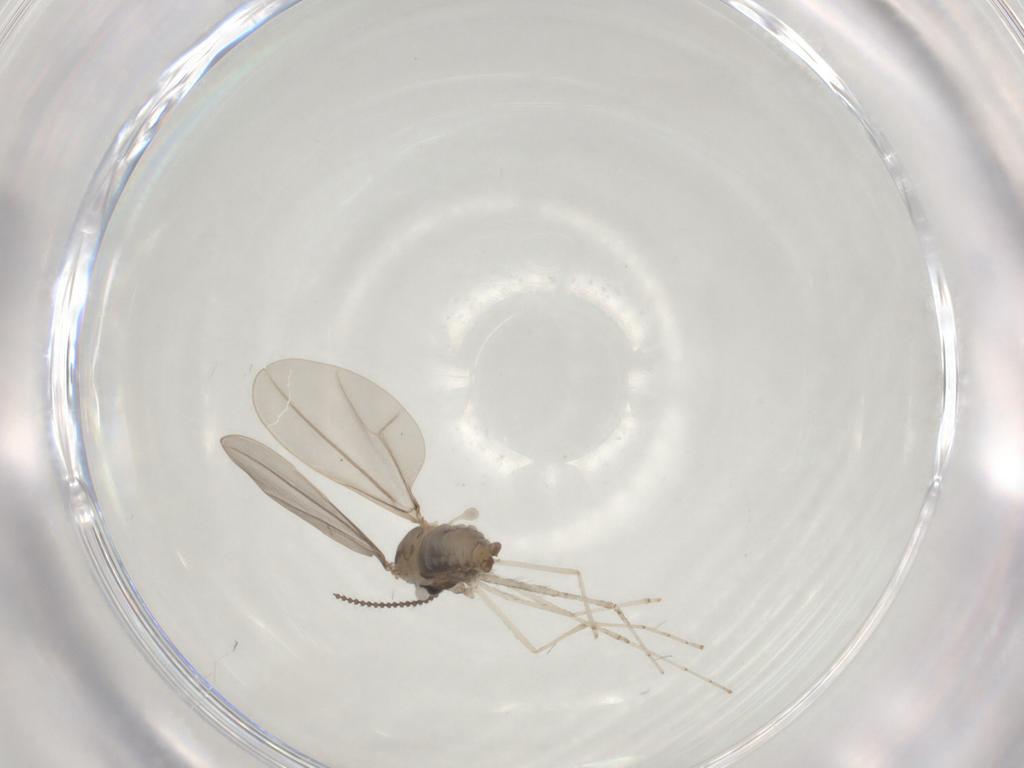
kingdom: Animalia
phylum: Arthropoda
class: Insecta
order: Diptera
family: Cecidomyiidae
